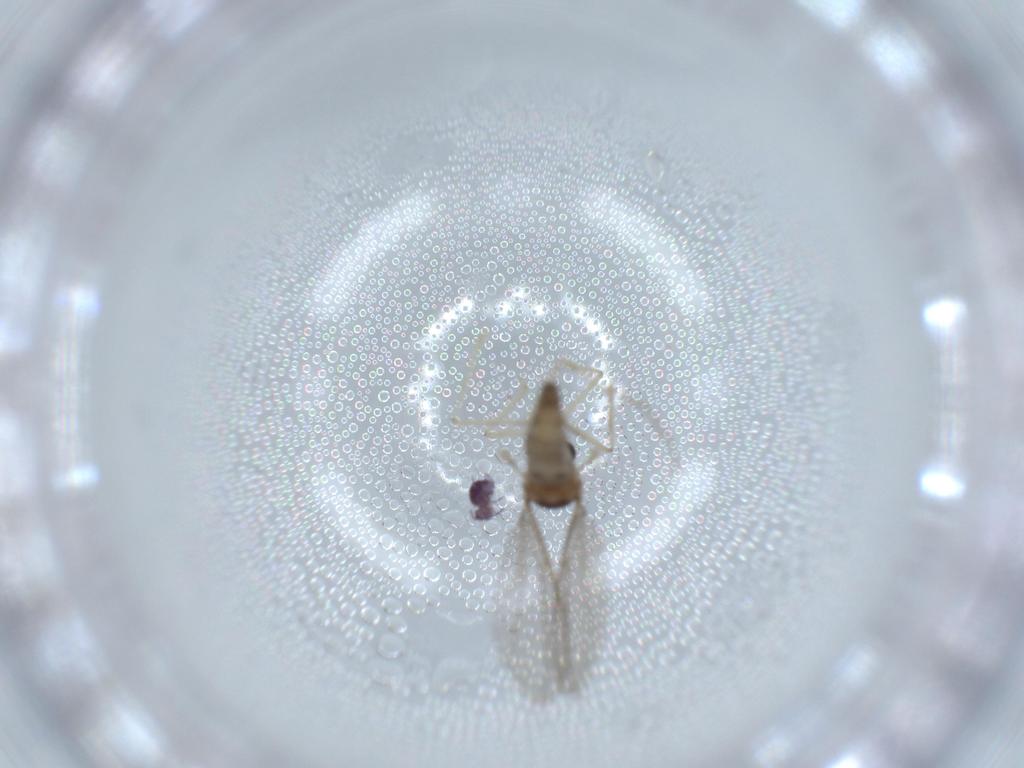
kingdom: Animalia
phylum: Arthropoda
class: Insecta
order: Diptera
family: Cecidomyiidae
